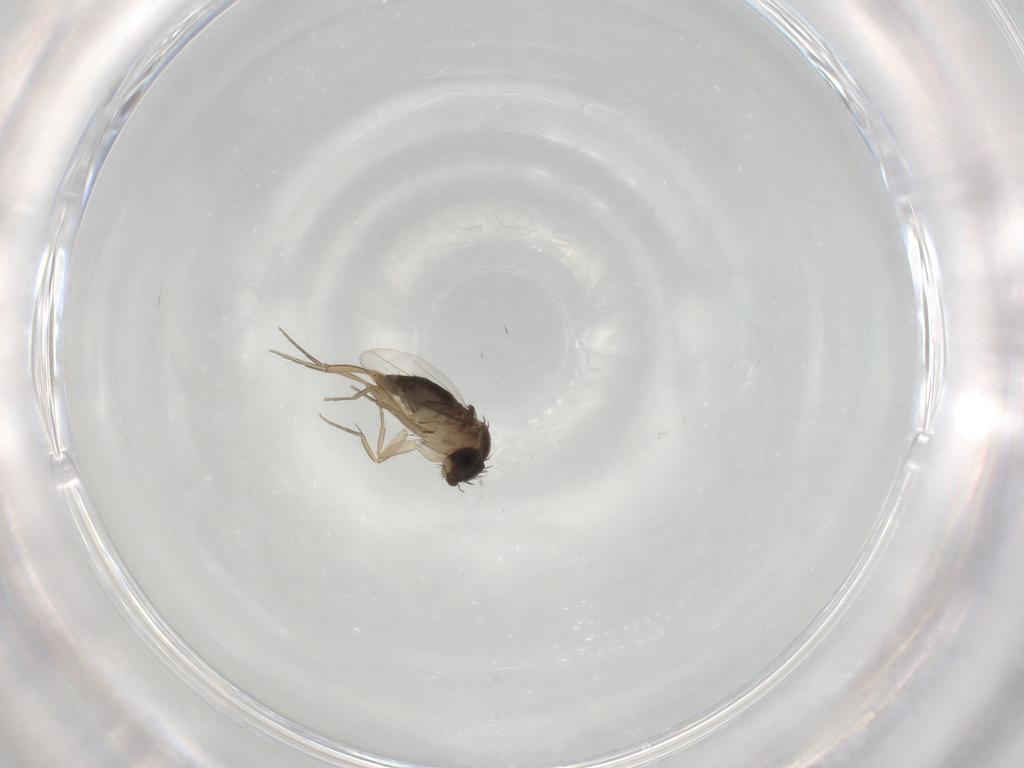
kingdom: Animalia
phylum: Arthropoda
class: Insecta
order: Diptera
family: Phoridae
